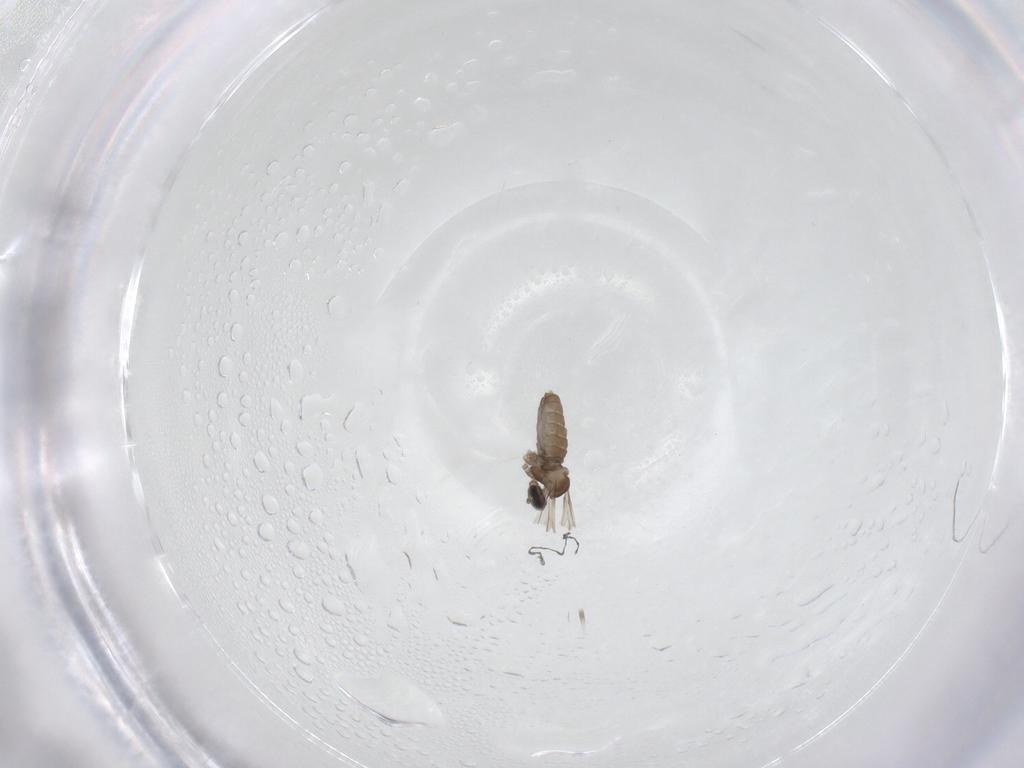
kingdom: Animalia
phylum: Arthropoda
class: Insecta
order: Diptera
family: Cecidomyiidae
